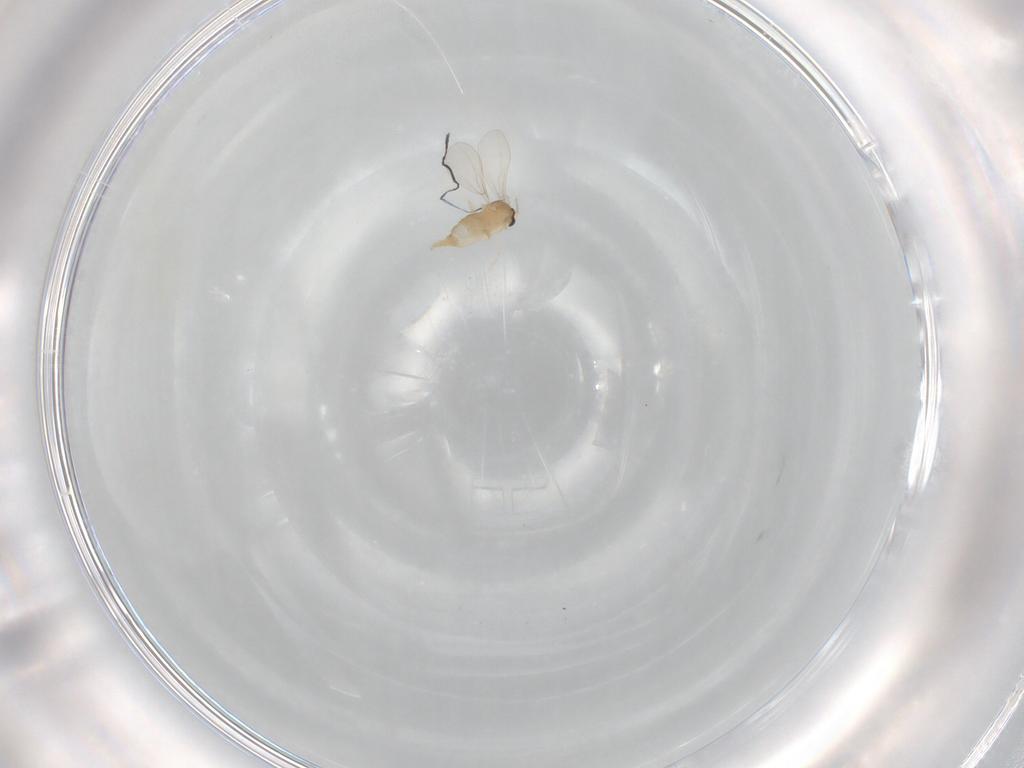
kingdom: Animalia
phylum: Arthropoda
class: Insecta
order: Diptera
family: Cecidomyiidae
